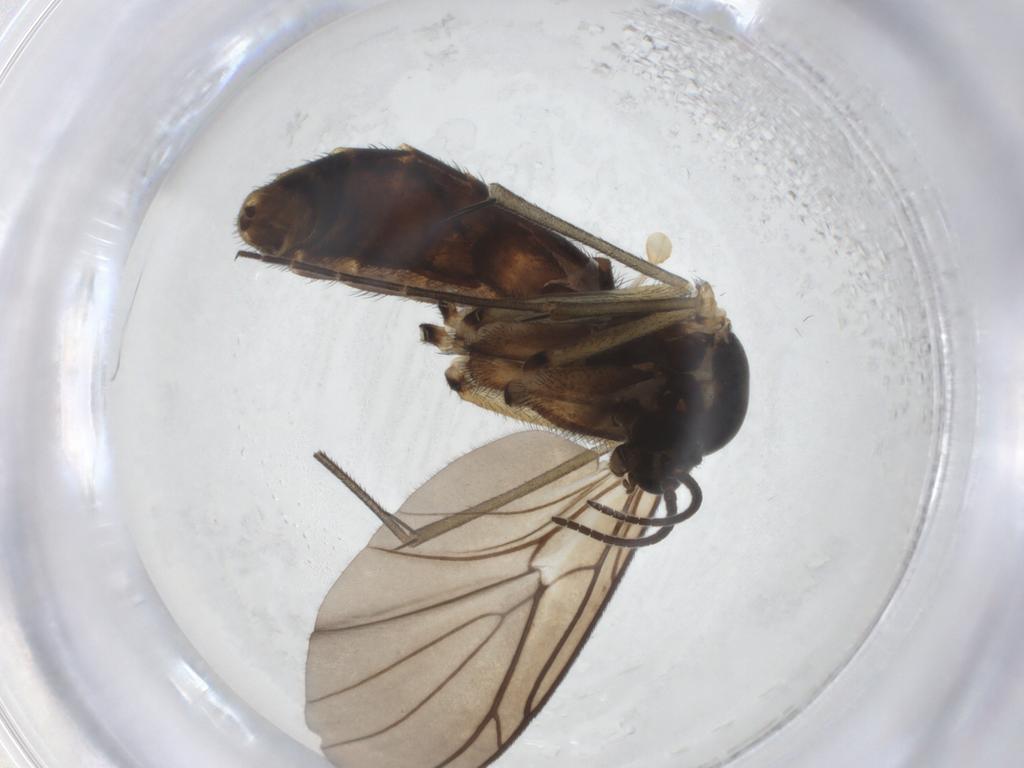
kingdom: Animalia
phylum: Arthropoda
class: Insecta
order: Diptera
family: Keroplatidae
